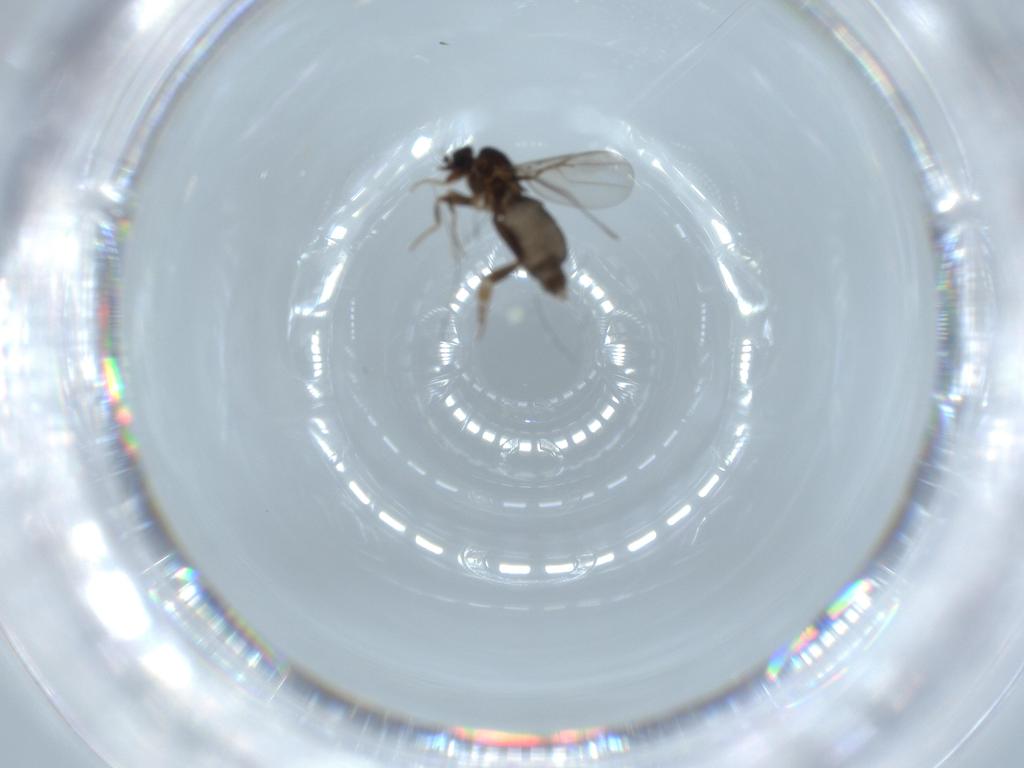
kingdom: Animalia
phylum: Arthropoda
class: Insecta
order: Diptera
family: Phoridae
